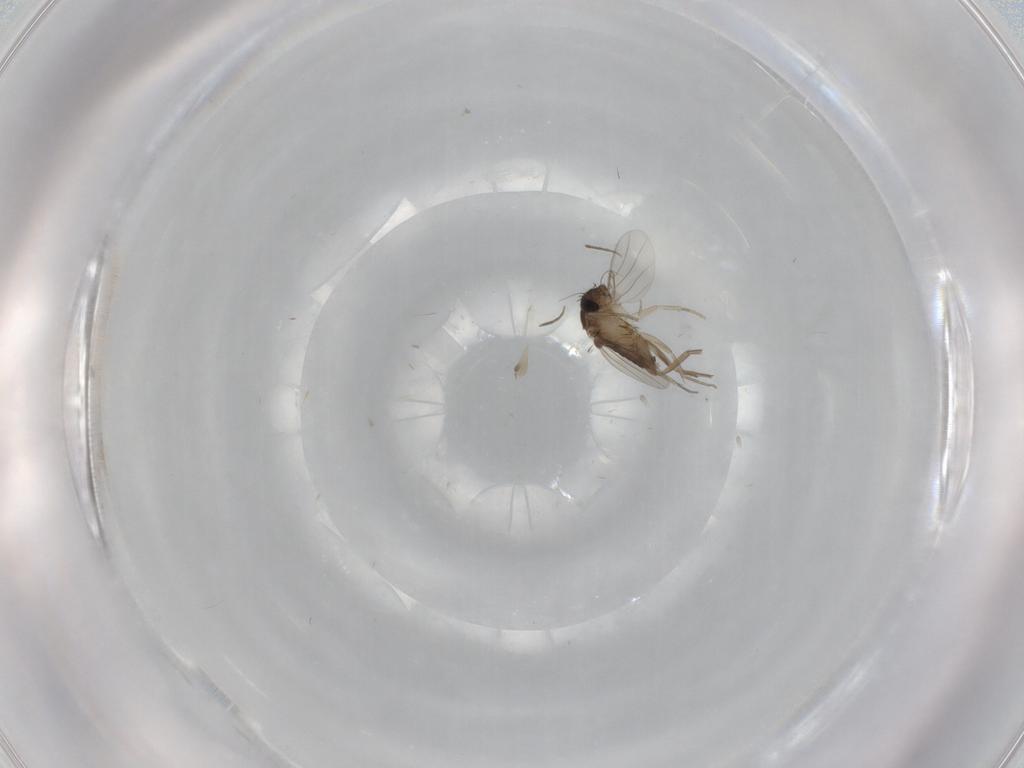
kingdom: Animalia
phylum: Arthropoda
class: Insecta
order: Diptera
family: Phoridae
